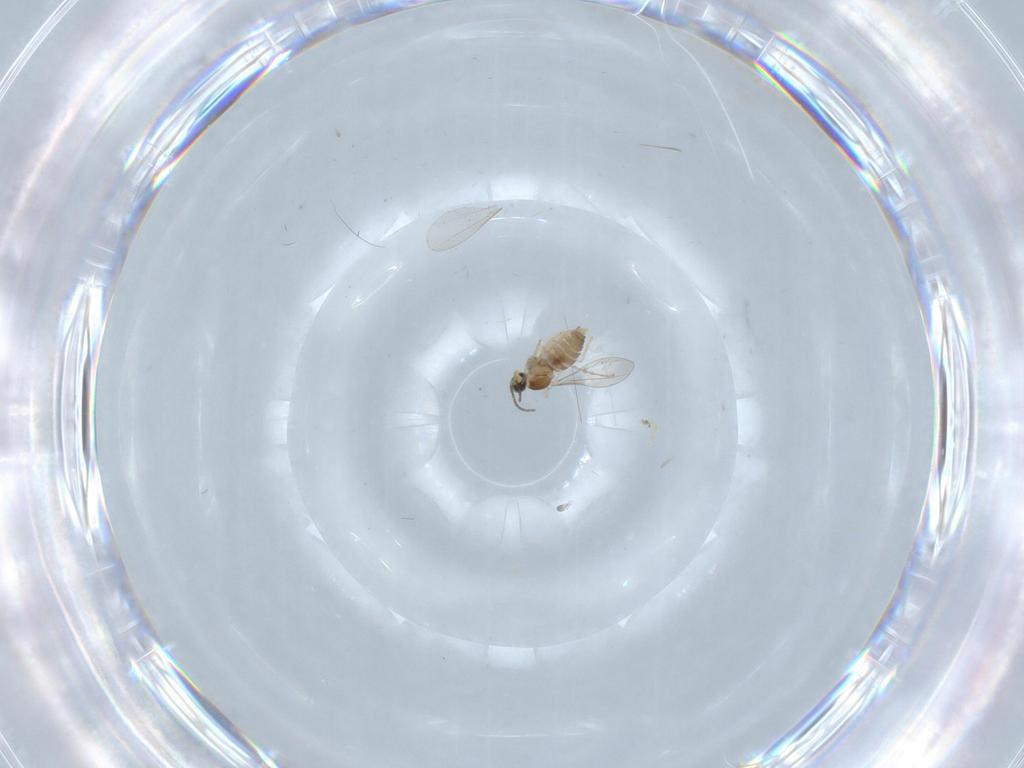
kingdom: Animalia
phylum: Arthropoda
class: Insecta
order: Diptera
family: Cecidomyiidae
